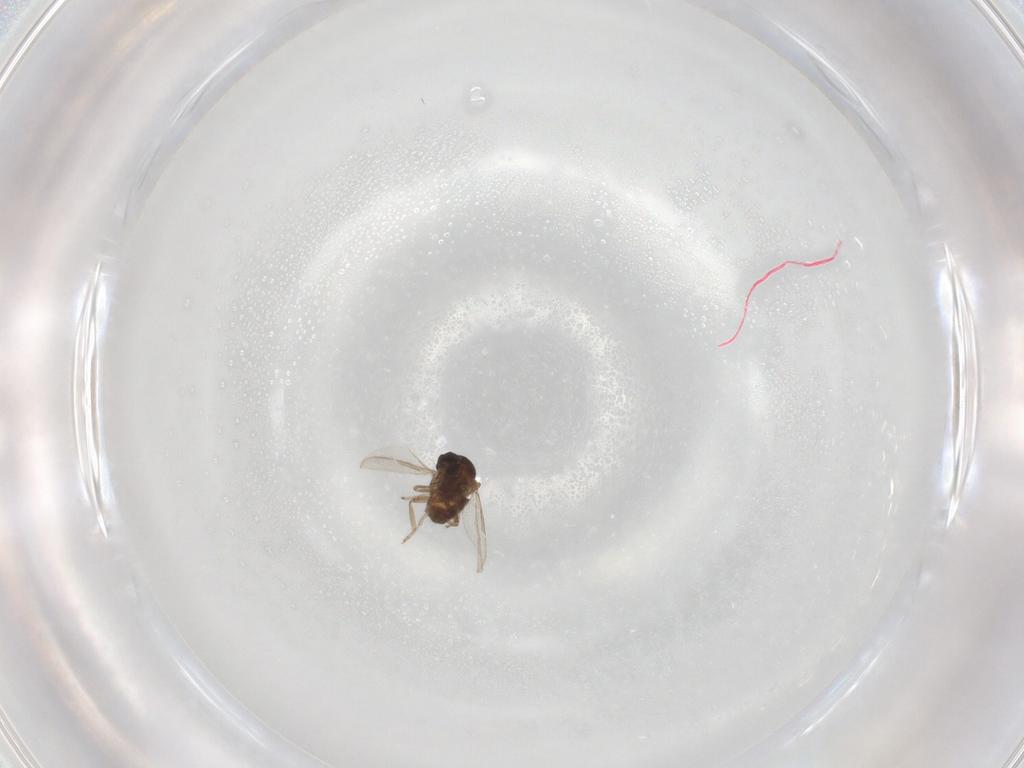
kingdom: Animalia
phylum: Arthropoda
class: Insecta
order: Diptera
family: Ceratopogonidae
